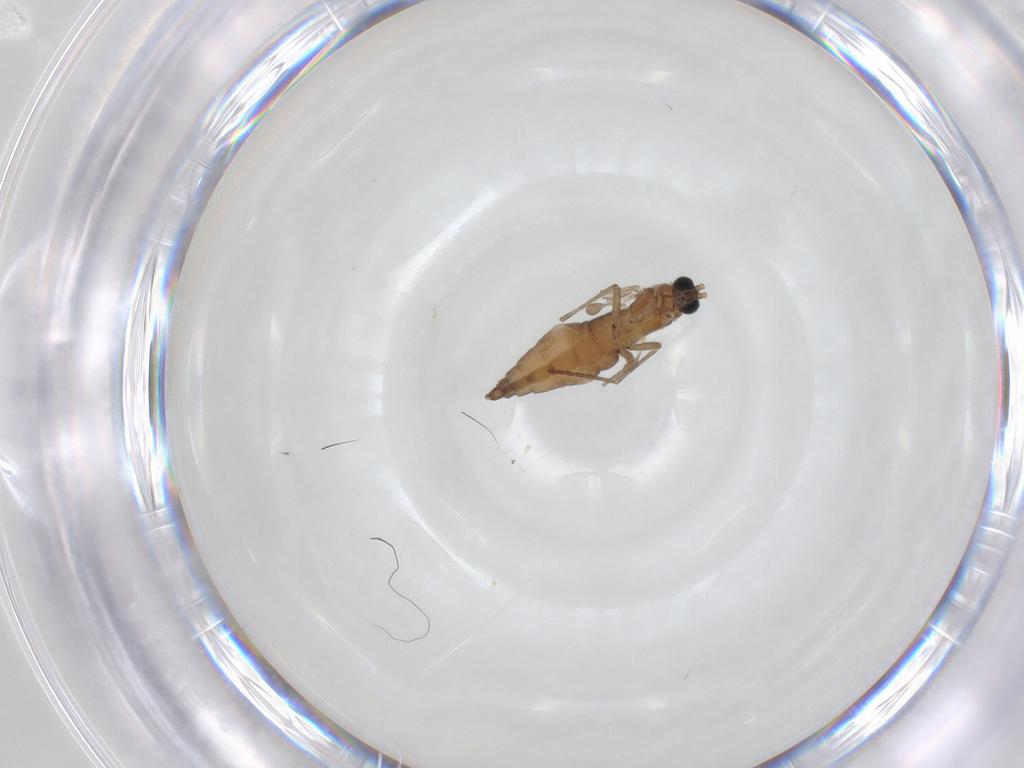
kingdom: Animalia
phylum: Arthropoda
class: Insecta
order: Diptera
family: Sciaridae
